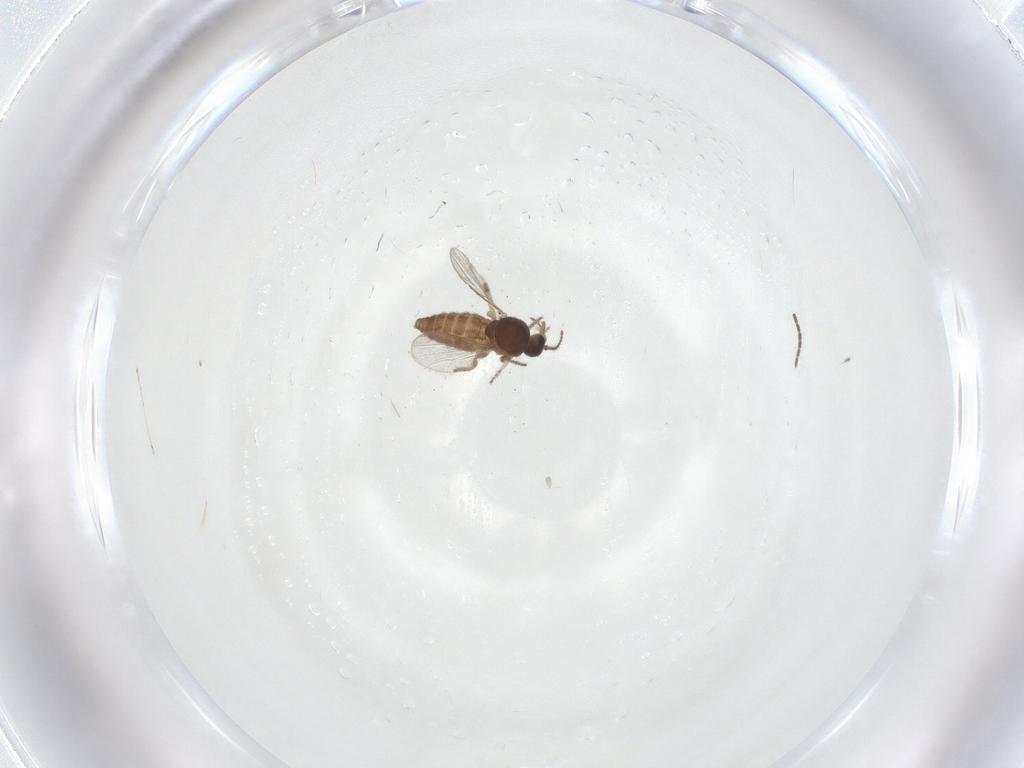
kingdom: Animalia
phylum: Arthropoda
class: Insecta
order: Diptera
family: Cecidomyiidae
